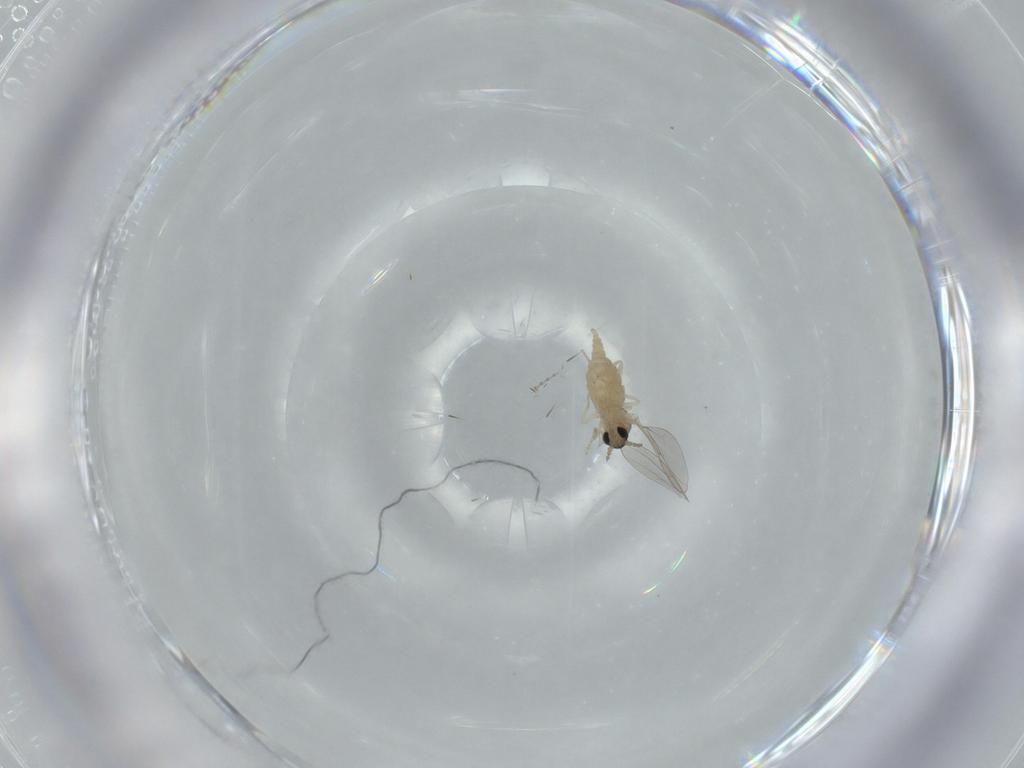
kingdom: Animalia
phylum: Arthropoda
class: Insecta
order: Diptera
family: Cecidomyiidae
